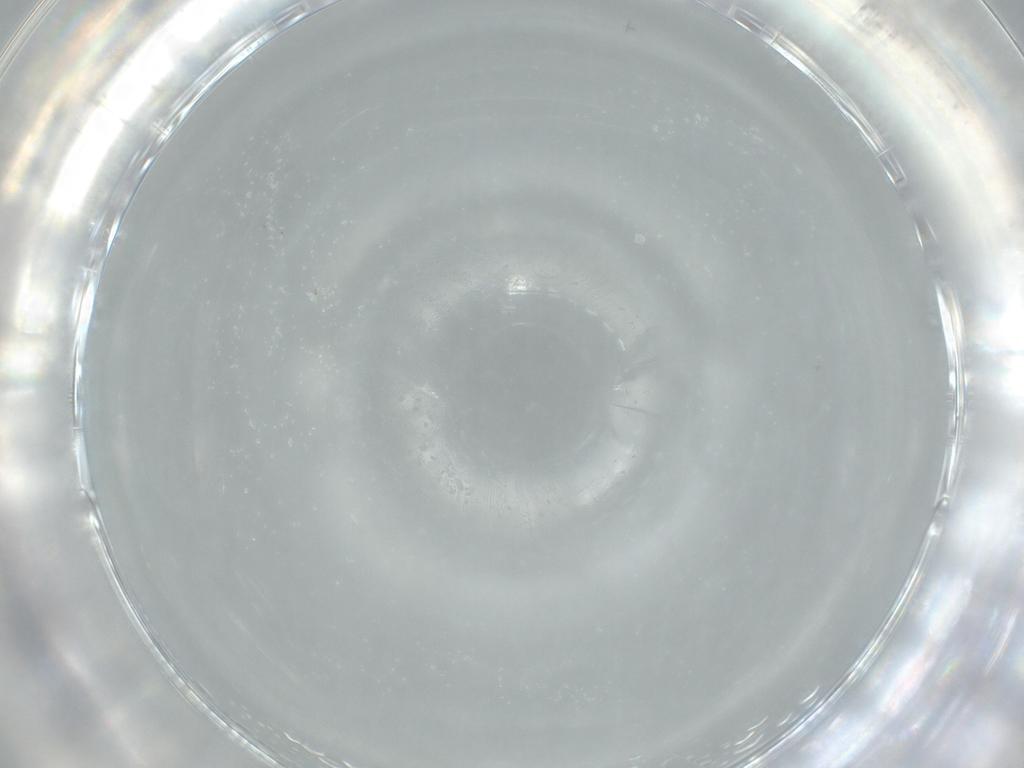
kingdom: Animalia
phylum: Arthropoda
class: Insecta
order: Diptera
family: Milichiidae
